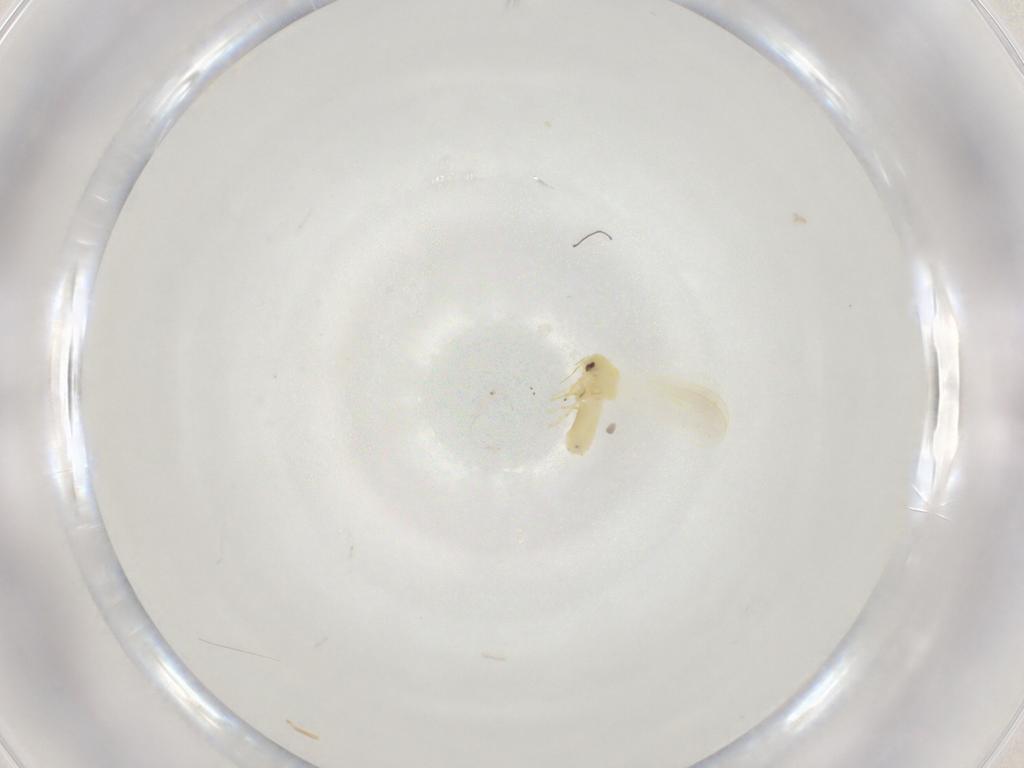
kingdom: Animalia
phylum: Arthropoda
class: Insecta
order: Hemiptera
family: Aleyrodidae
